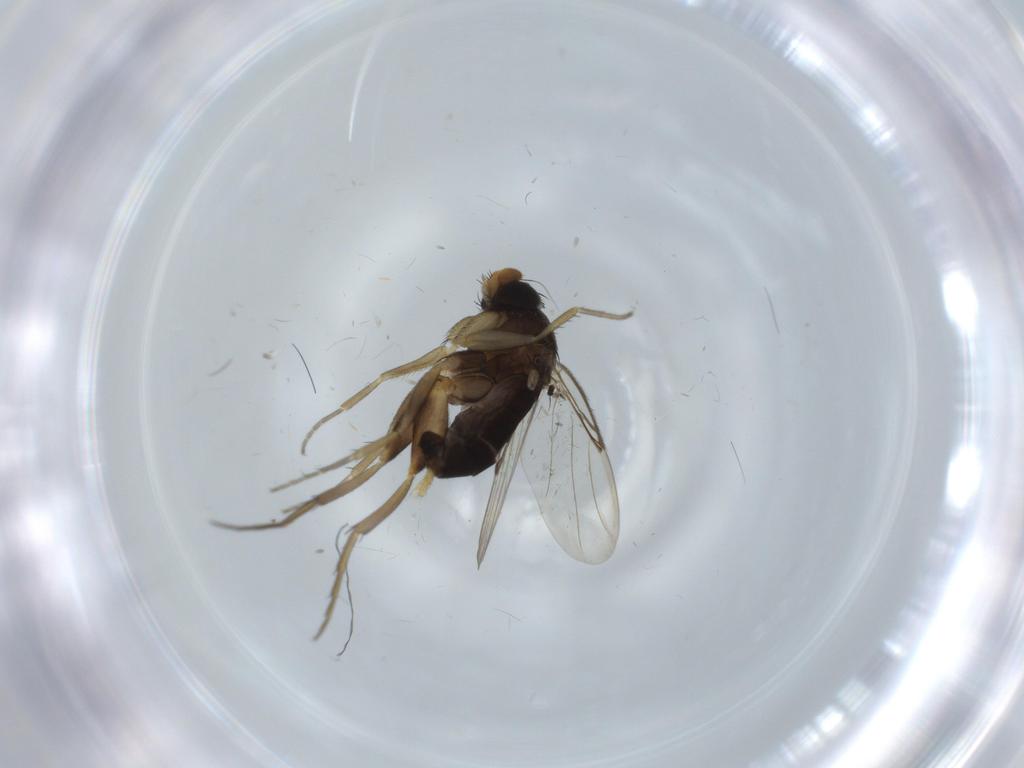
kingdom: Animalia
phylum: Arthropoda
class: Insecta
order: Diptera
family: Phoridae
